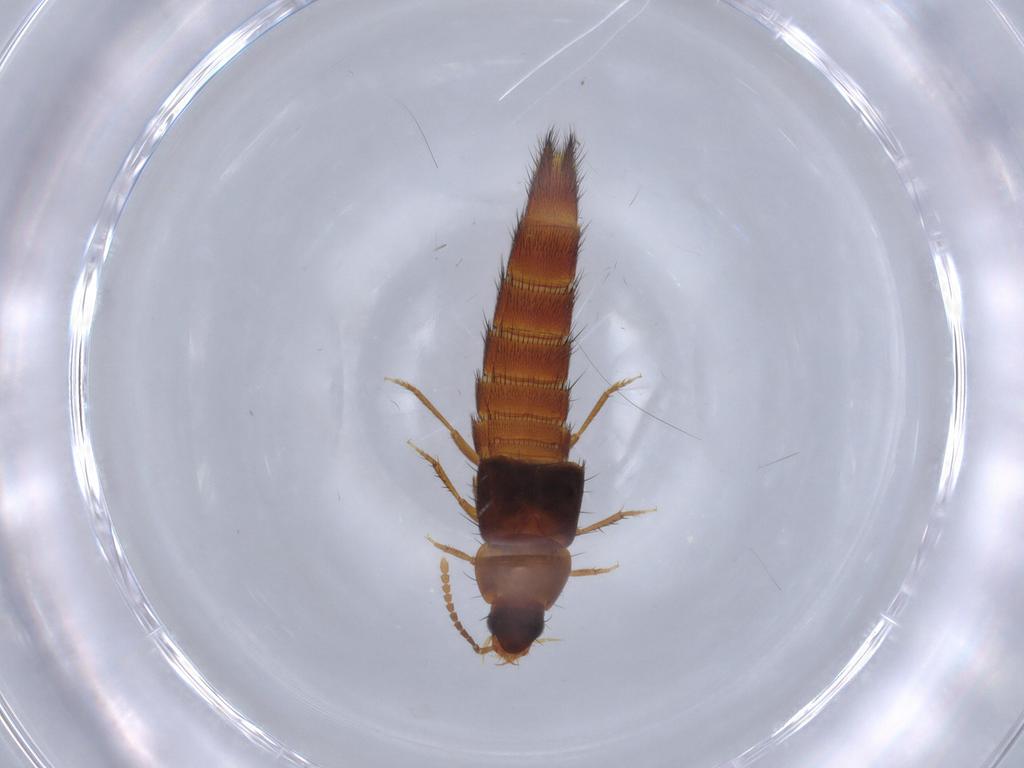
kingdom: Animalia
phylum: Arthropoda
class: Insecta
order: Coleoptera
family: Staphylinidae
